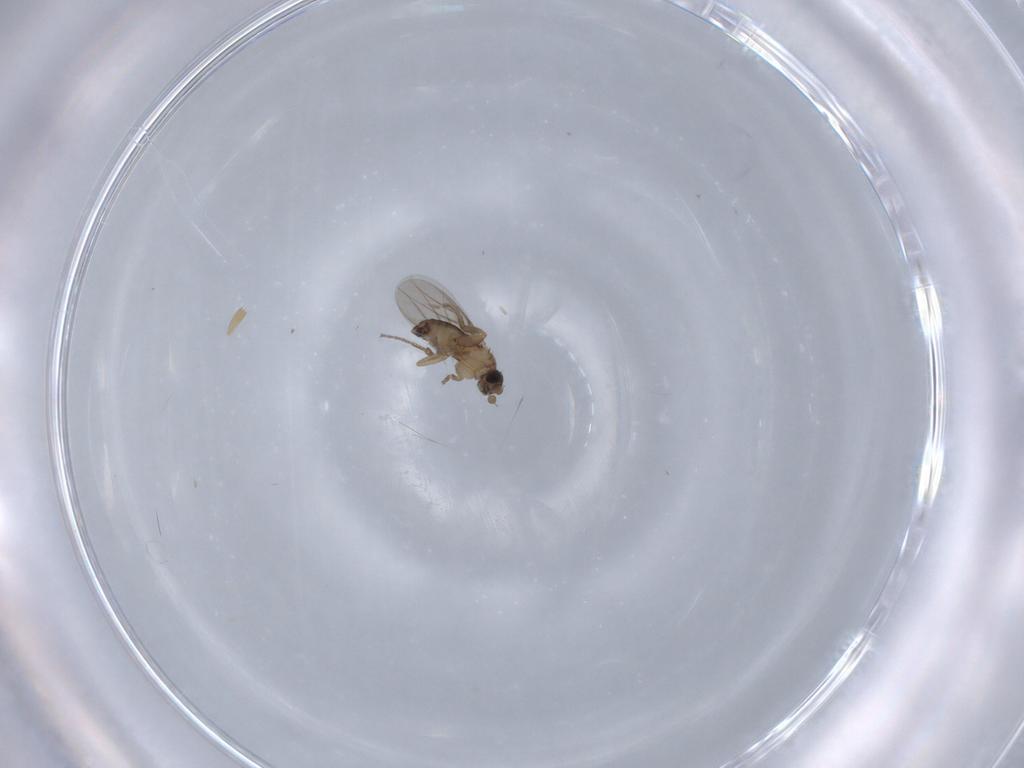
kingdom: Animalia
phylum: Arthropoda
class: Insecta
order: Diptera
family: Phoridae
